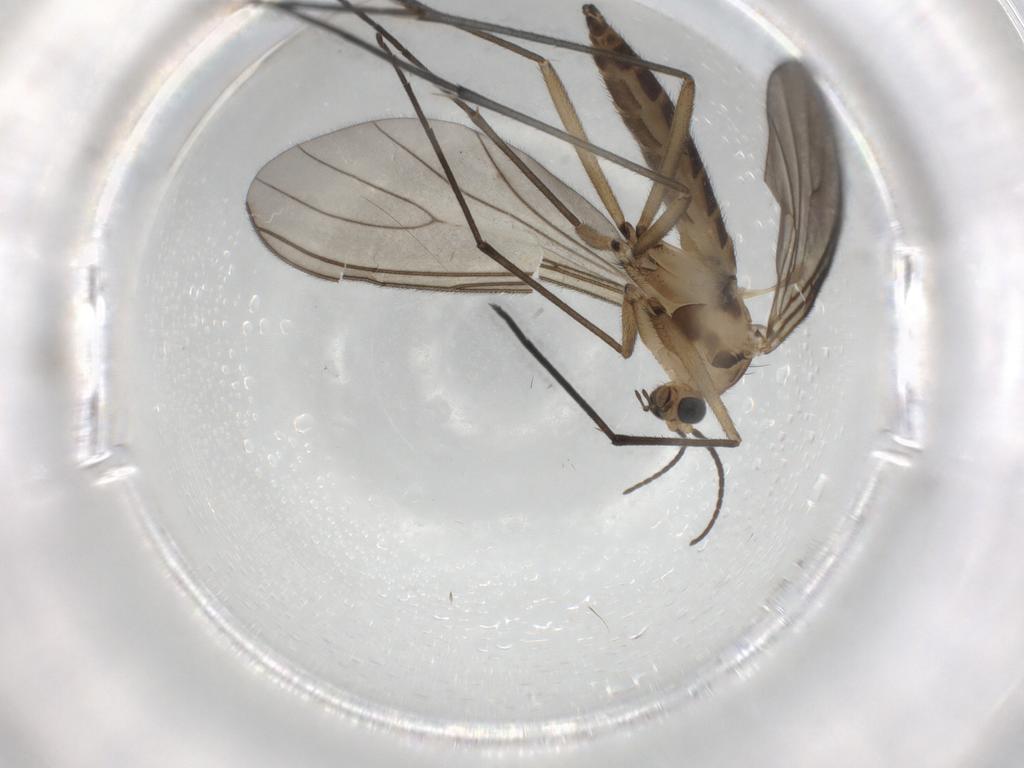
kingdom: Animalia
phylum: Arthropoda
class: Insecta
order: Diptera
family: Sciaridae
